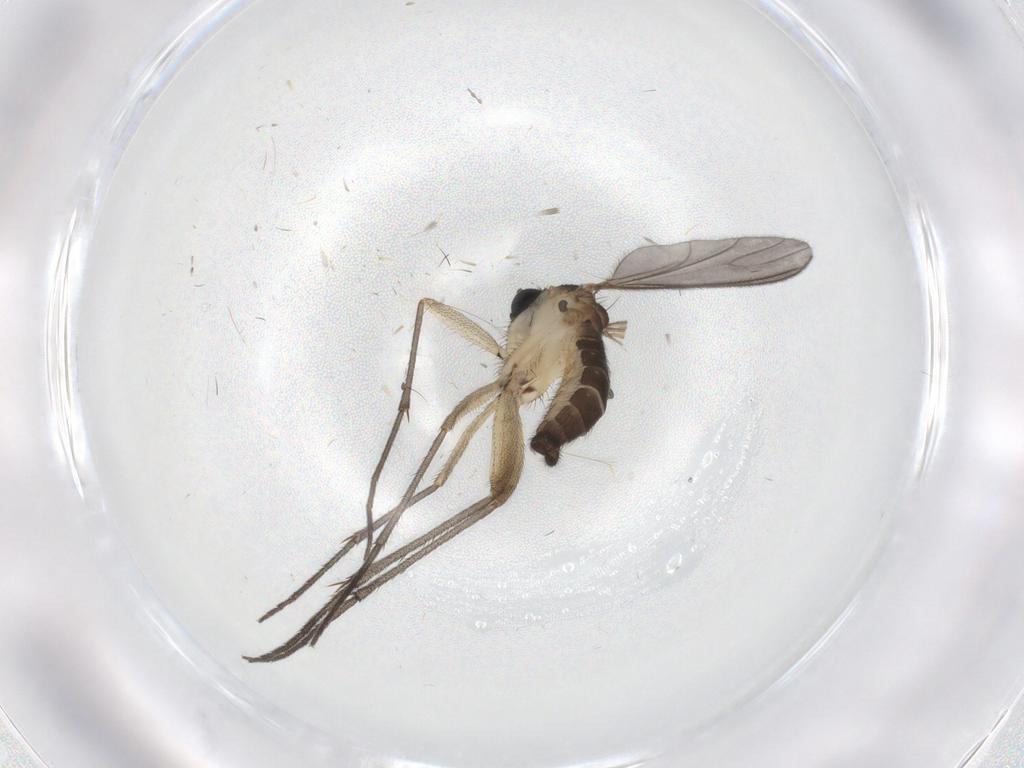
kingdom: Animalia
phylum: Arthropoda
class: Insecta
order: Diptera
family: Sciaridae
